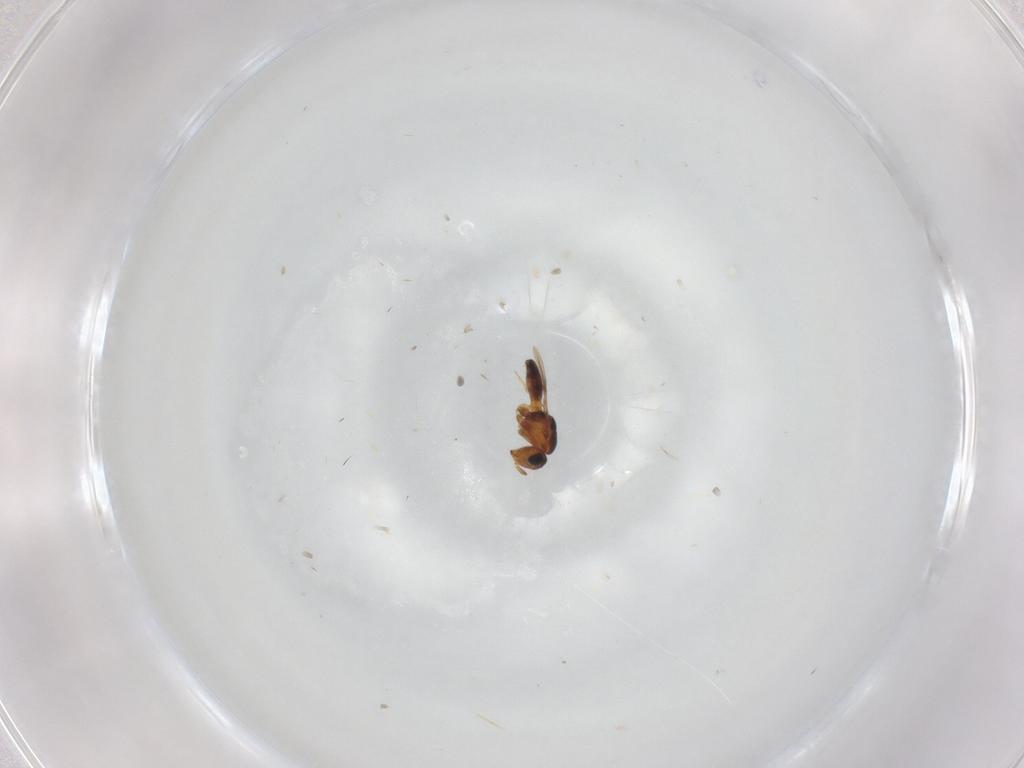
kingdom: Animalia
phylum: Arthropoda
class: Insecta
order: Hymenoptera
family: Scelionidae
